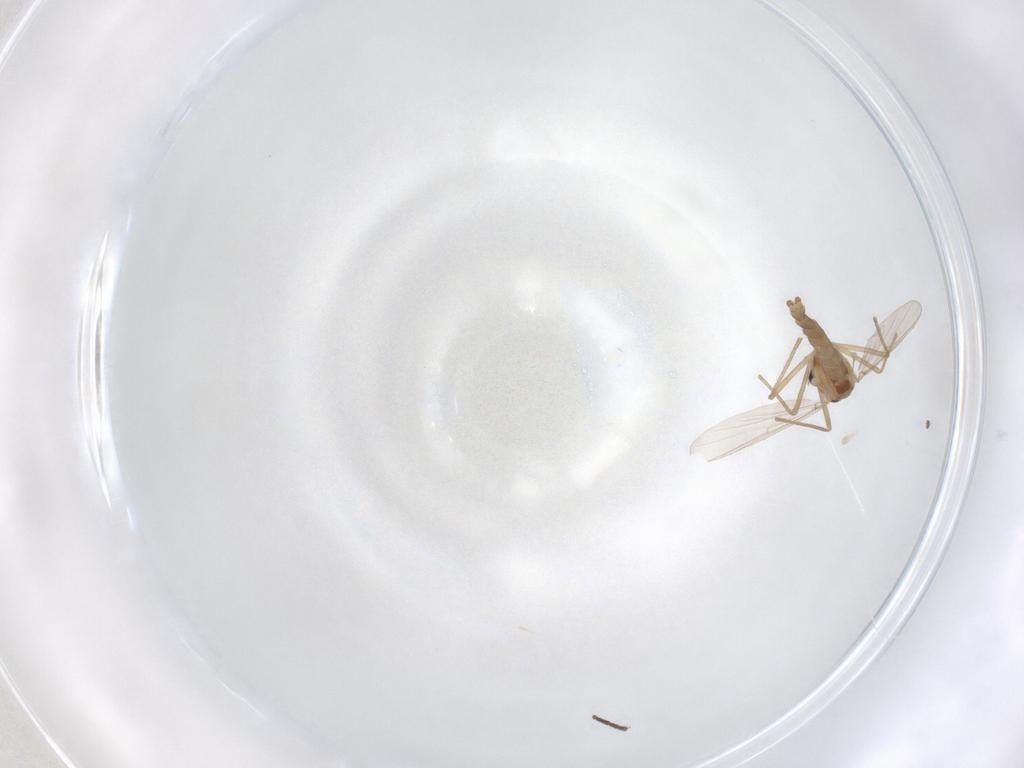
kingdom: Animalia
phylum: Arthropoda
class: Insecta
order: Diptera
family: Chironomidae
